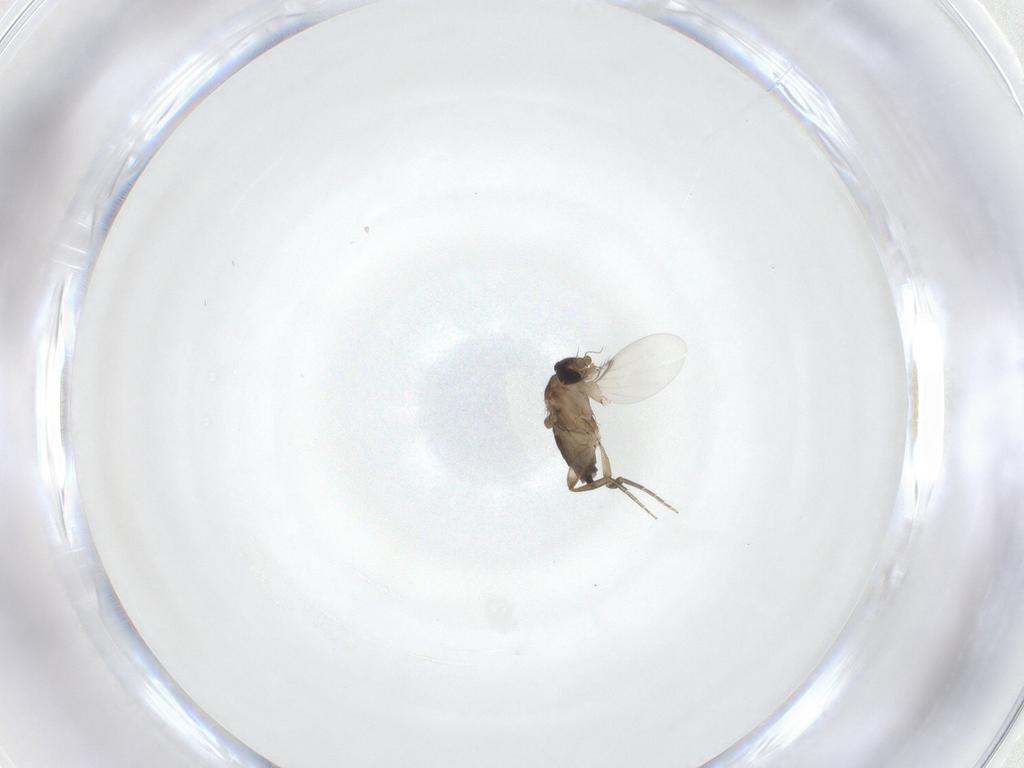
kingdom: Animalia
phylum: Arthropoda
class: Insecta
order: Diptera
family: Phoridae
